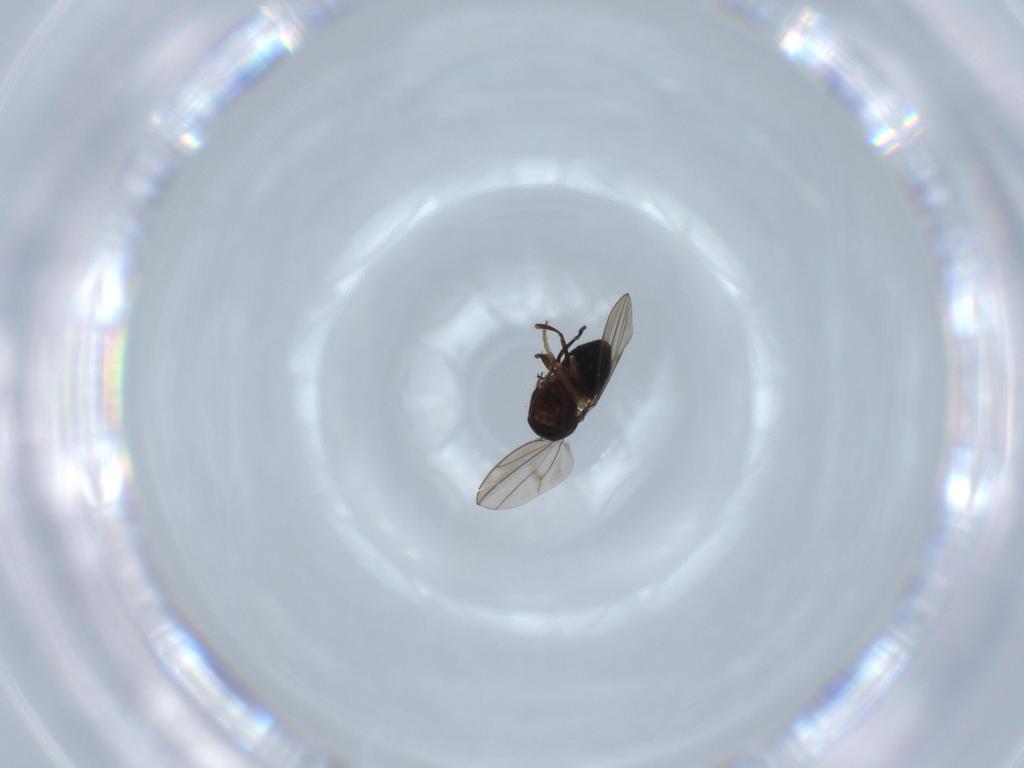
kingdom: Animalia
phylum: Arthropoda
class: Insecta
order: Diptera
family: Ephydridae
